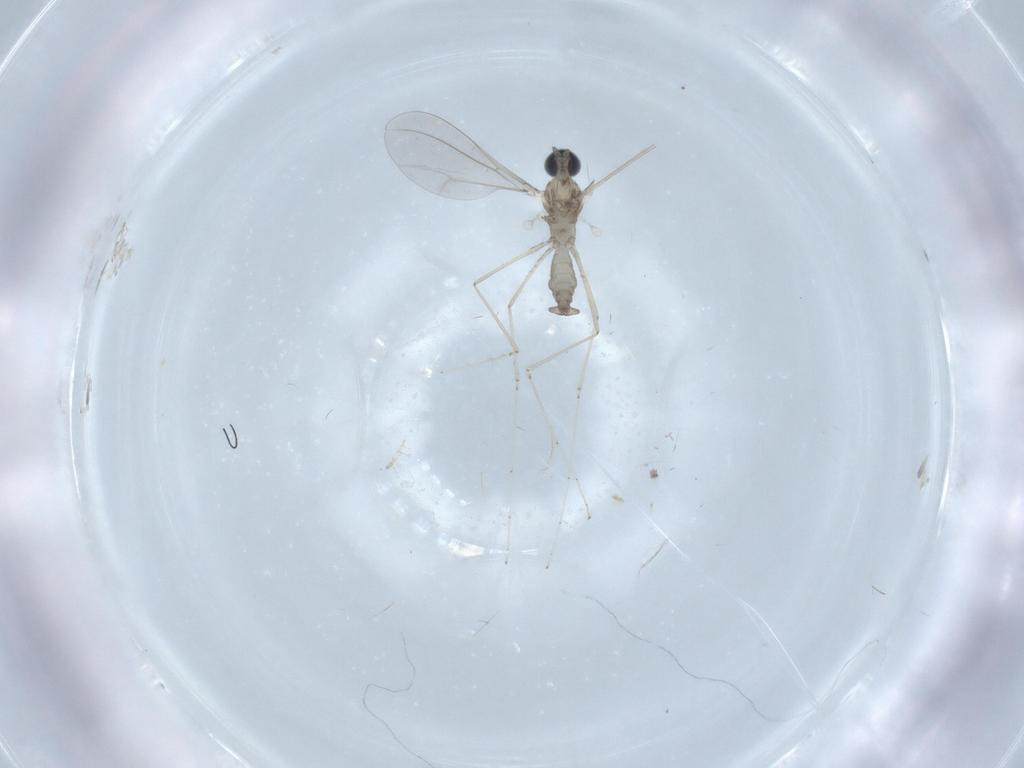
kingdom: Animalia
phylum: Arthropoda
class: Insecta
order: Diptera
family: Cecidomyiidae
